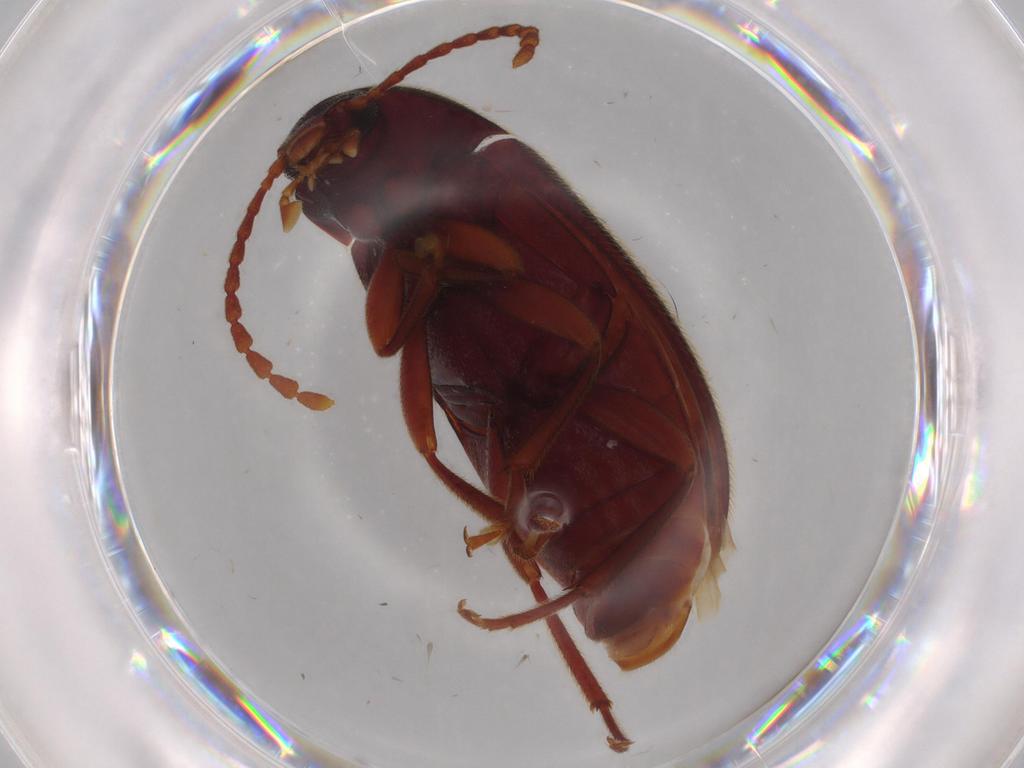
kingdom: Animalia
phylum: Arthropoda
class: Insecta
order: Coleoptera
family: Tenebrionidae
